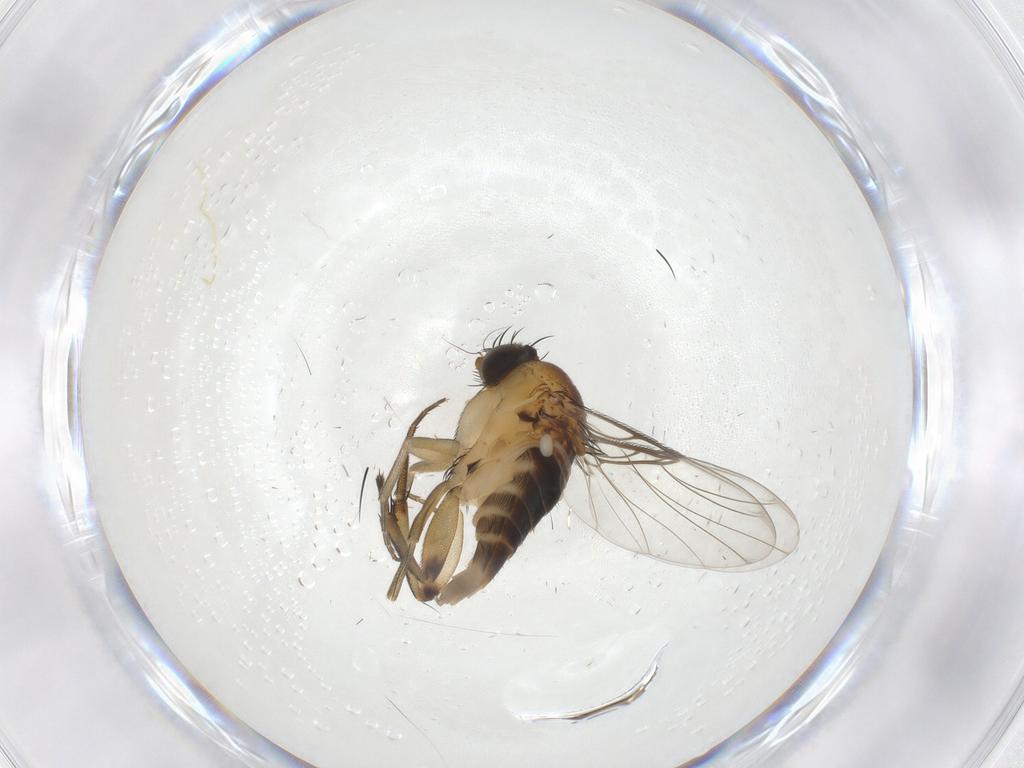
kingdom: Animalia
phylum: Arthropoda
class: Insecta
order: Diptera
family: Phoridae
